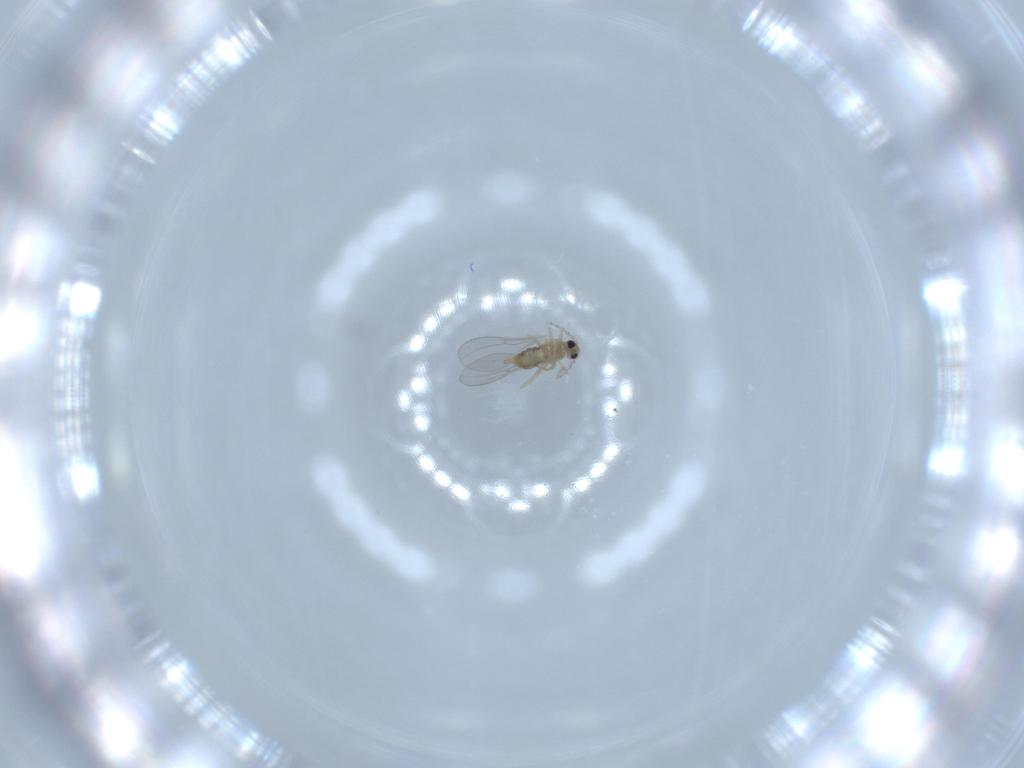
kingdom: Animalia
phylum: Arthropoda
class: Insecta
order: Diptera
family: Cecidomyiidae
